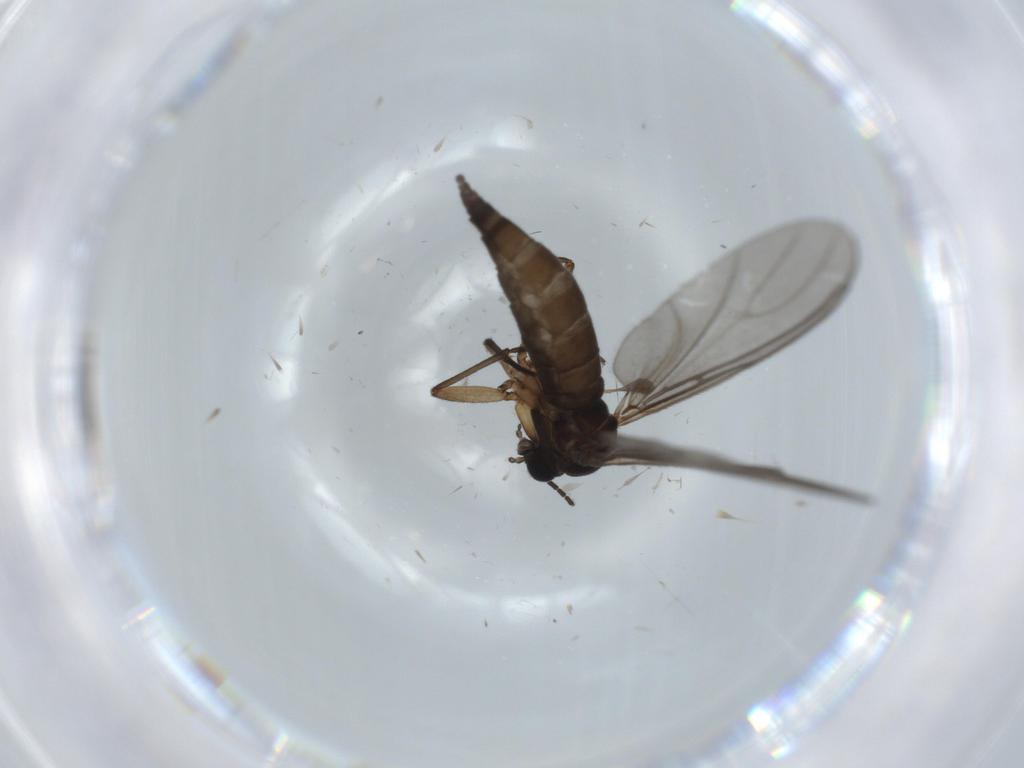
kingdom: Animalia
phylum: Arthropoda
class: Insecta
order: Diptera
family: Sciaridae
